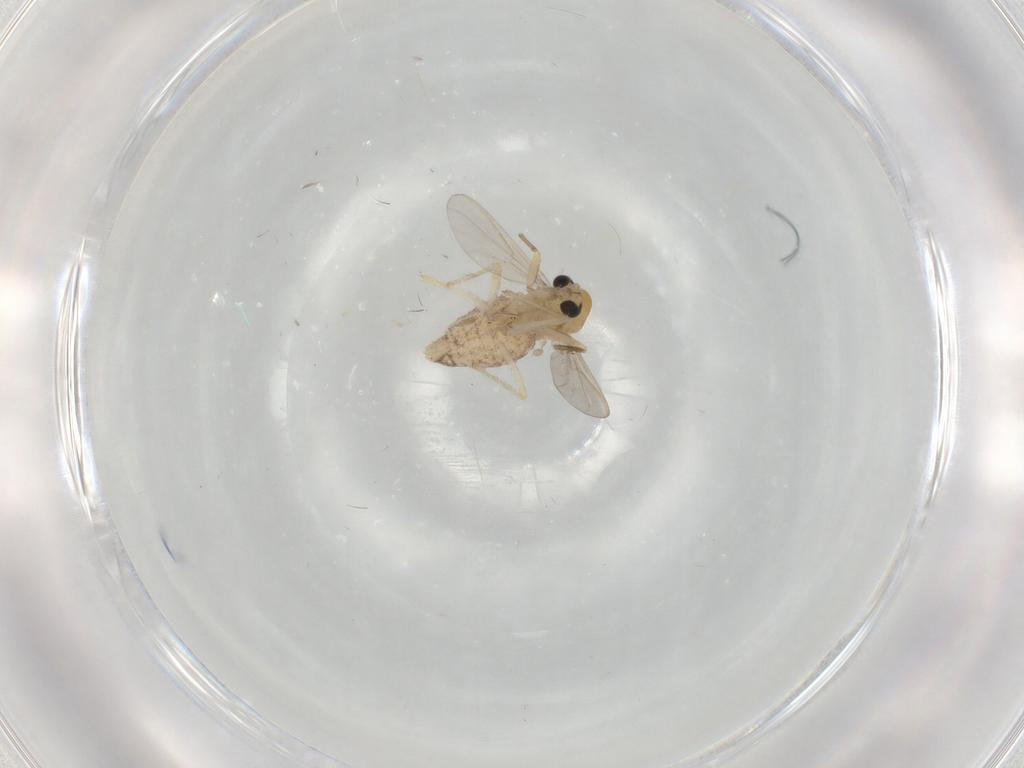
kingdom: Animalia
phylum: Arthropoda
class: Insecta
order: Diptera
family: Chironomidae
